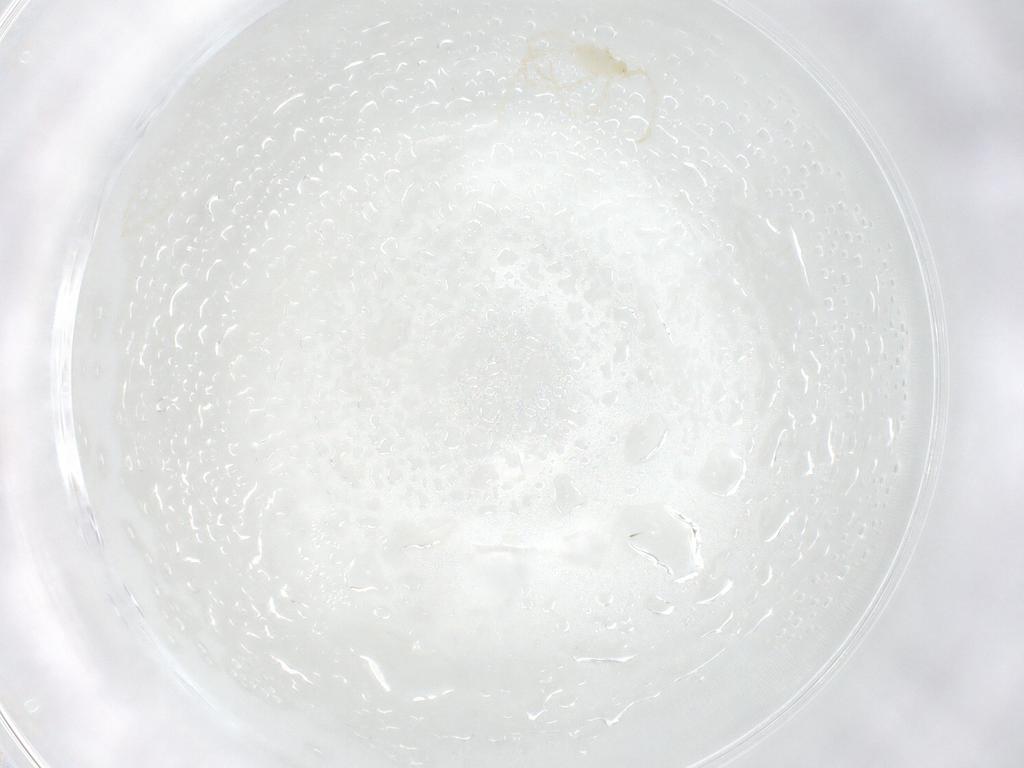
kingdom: Animalia
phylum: Arthropoda
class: Arachnida
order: Trombidiformes
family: Erythraeidae
